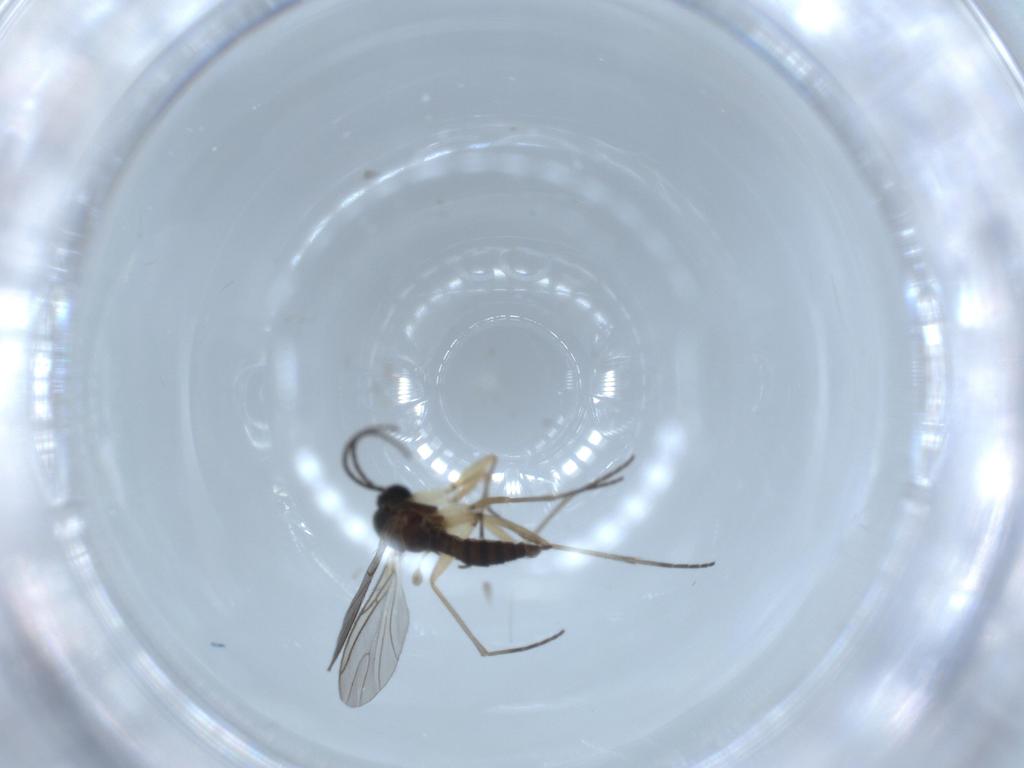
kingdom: Animalia
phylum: Arthropoda
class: Insecta
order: Diptera
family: Sciaridae
